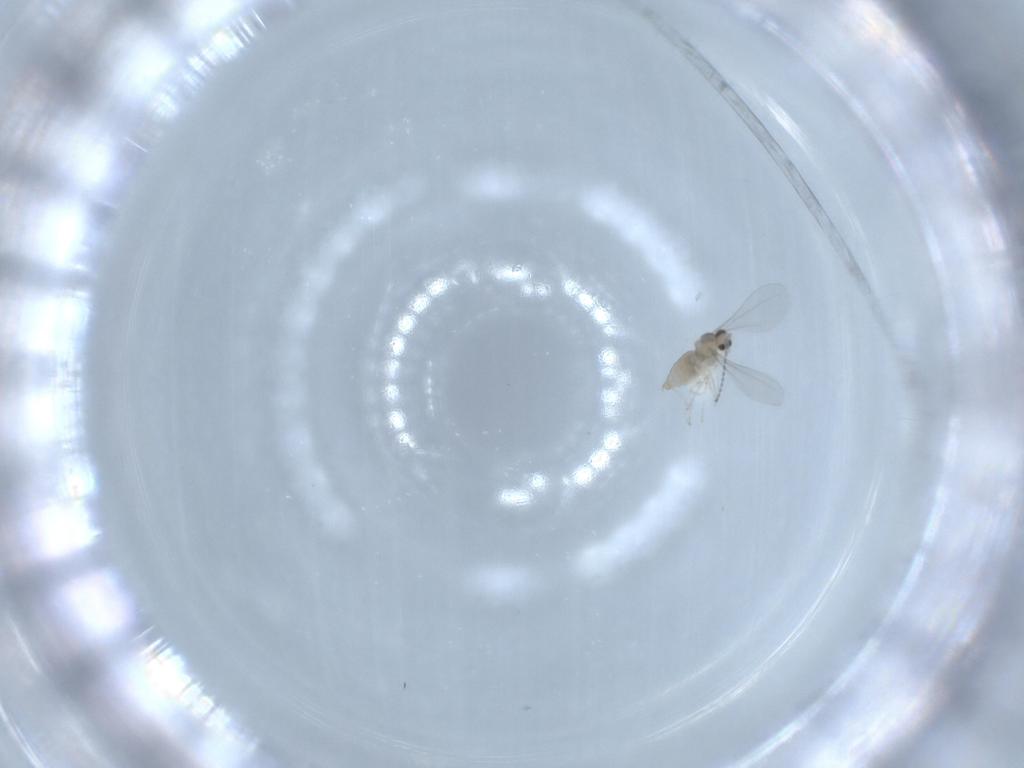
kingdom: Animalia
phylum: Arthropoda
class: Insecta
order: Diptera
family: Cecidomyiidae
